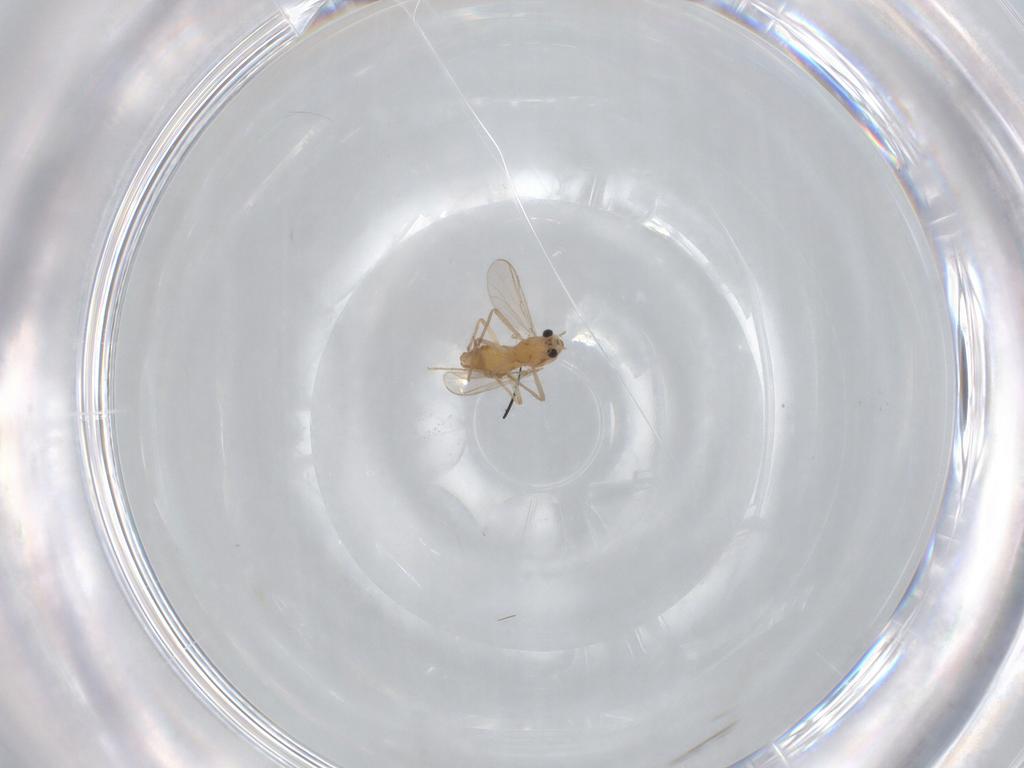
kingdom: Animalia
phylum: Arthropoda
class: Insecta
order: Diptera
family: Chironomidae
